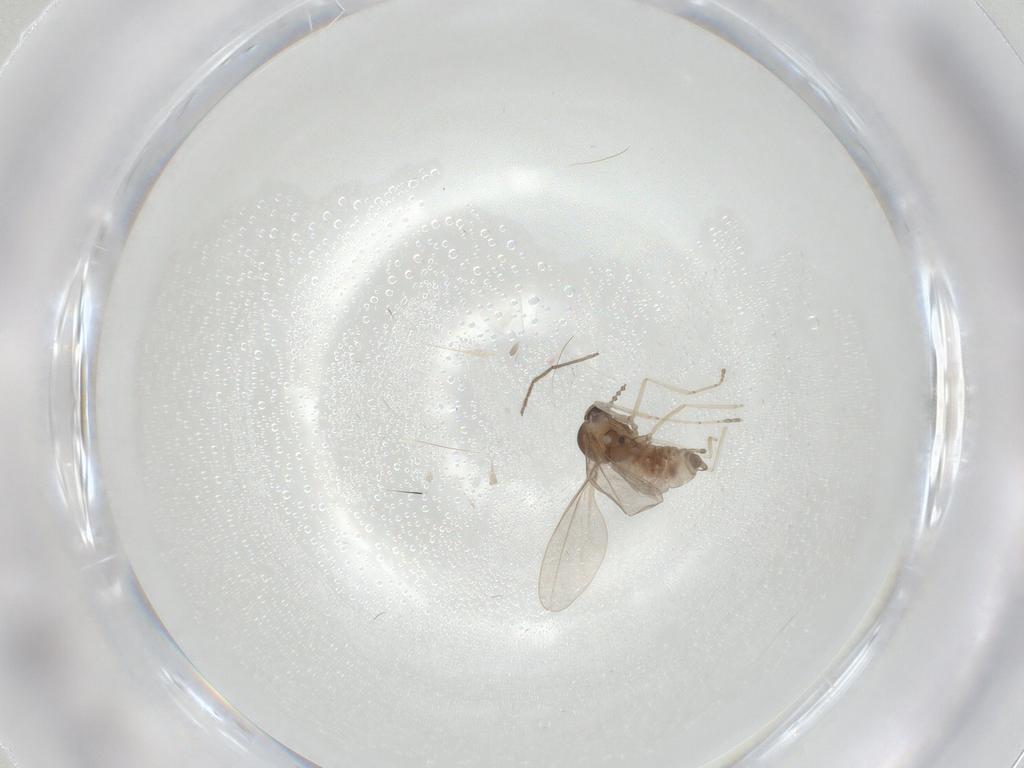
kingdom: Animalia
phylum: Arthropoda
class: Insecta
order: Diptera
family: Cecidomyiidae
